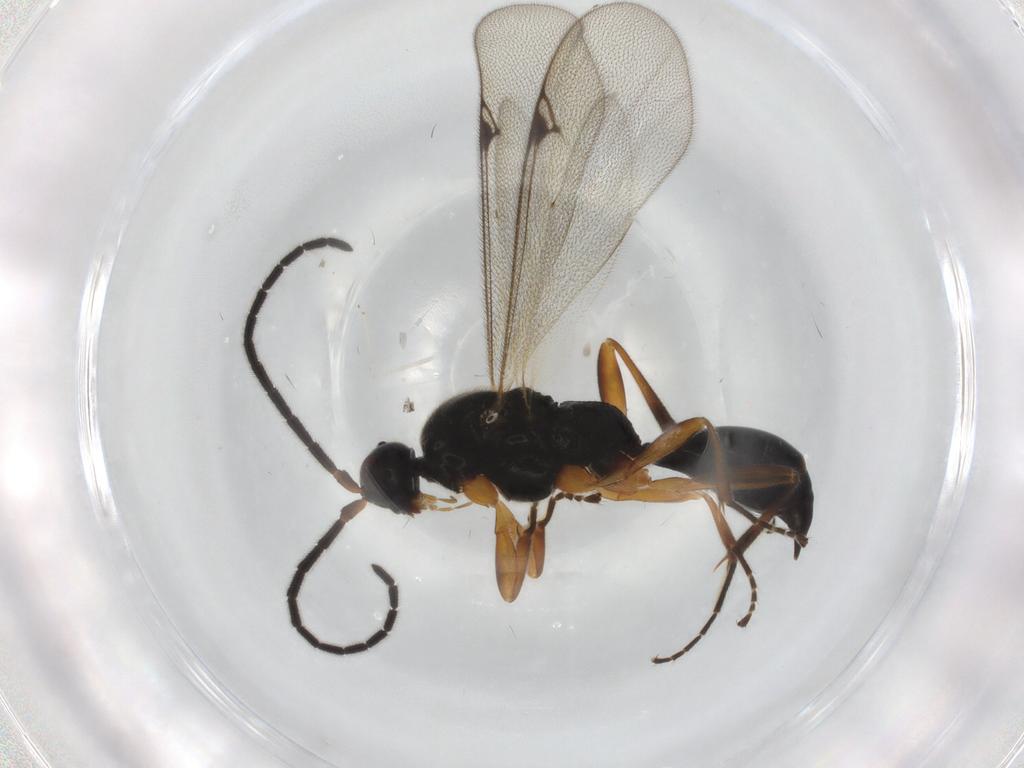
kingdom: Animalia
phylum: Arthropoda
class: Insecta
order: Hymenoptera
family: Proctotrupidae
